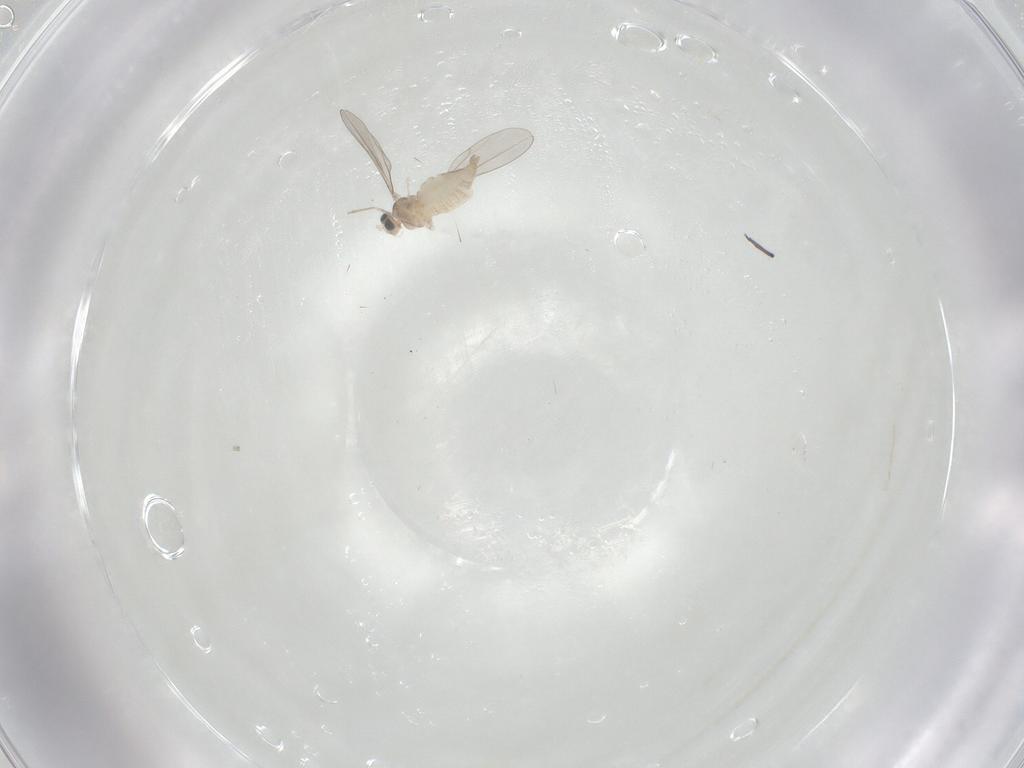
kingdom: Animalia
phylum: Arthropoda
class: Insecta
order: Diptera
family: Cecidomyiidae
